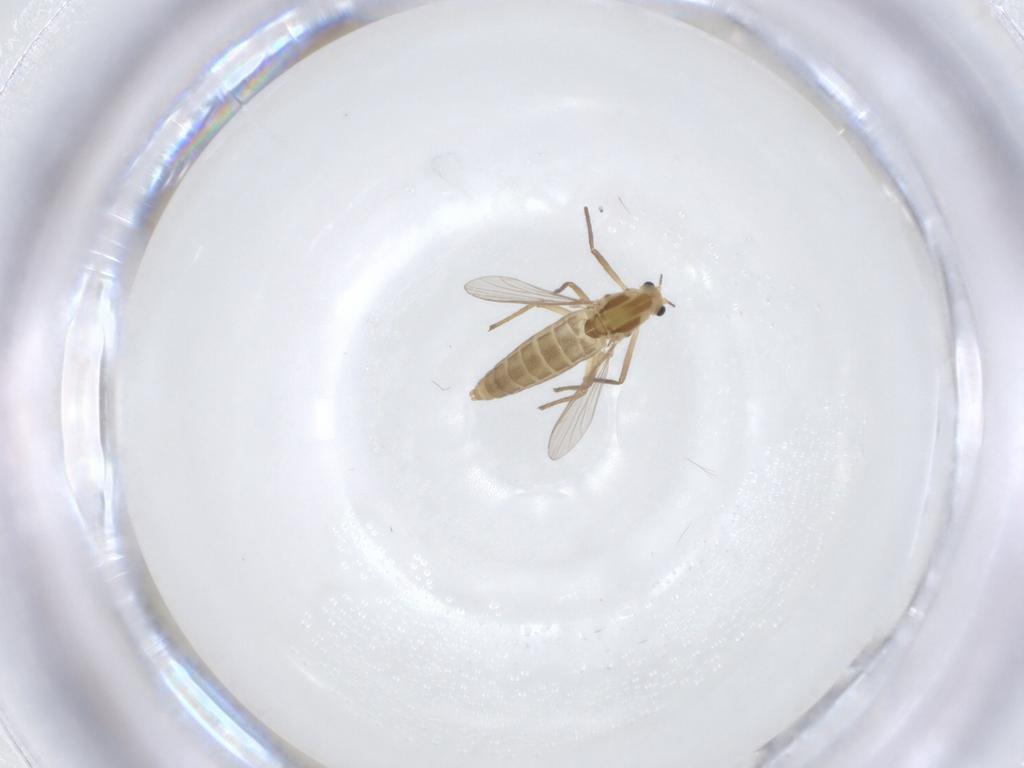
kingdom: Animalia
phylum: Arthropoda
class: Insecta
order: Diptera
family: Chironomidae
